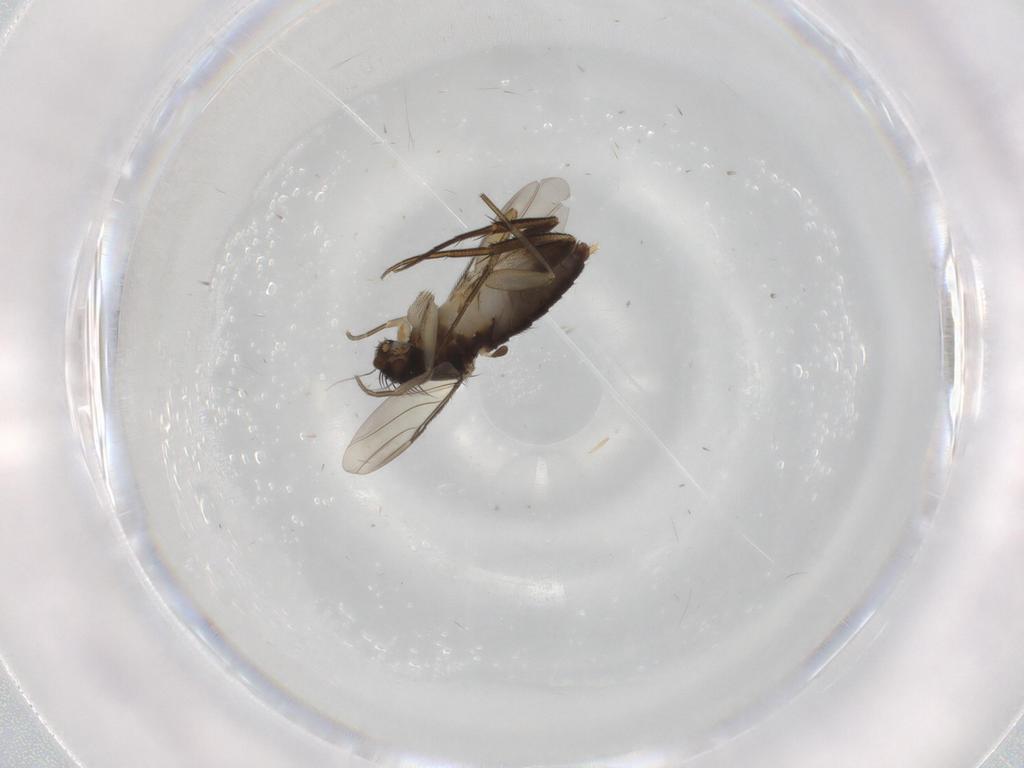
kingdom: Animalia
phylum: Arthropoda
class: Insecta
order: Diptera
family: Phoridae
